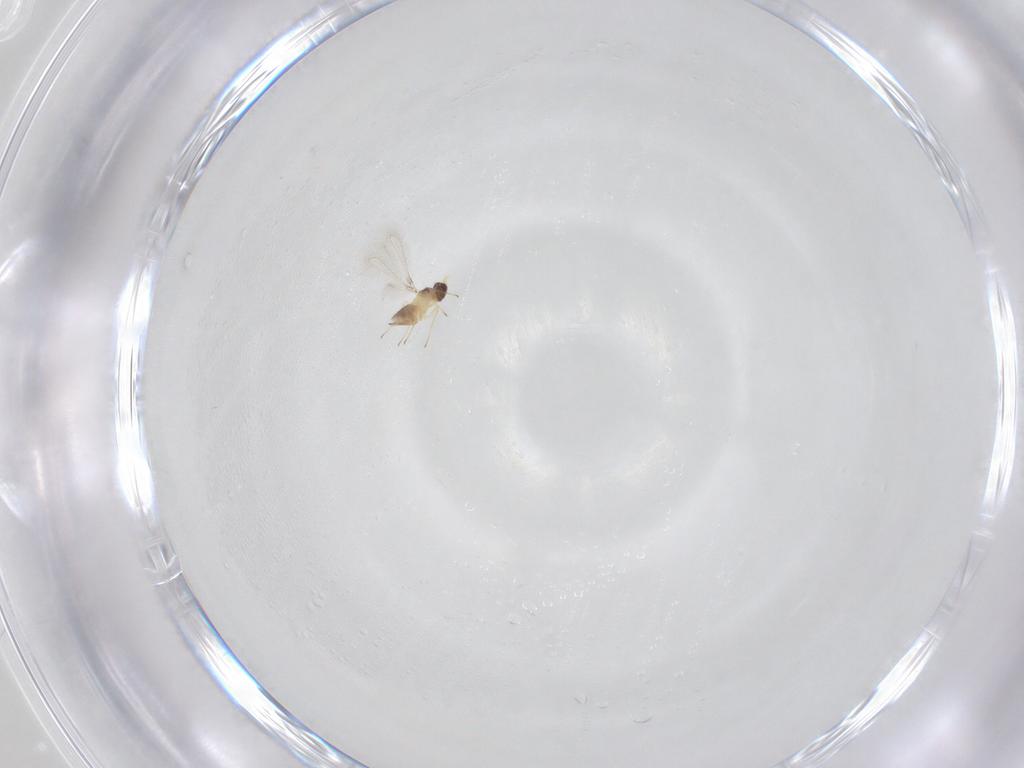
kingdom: Animalia
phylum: Arthropoda
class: Insecta
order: Hymenoptera
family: Mymaridae
